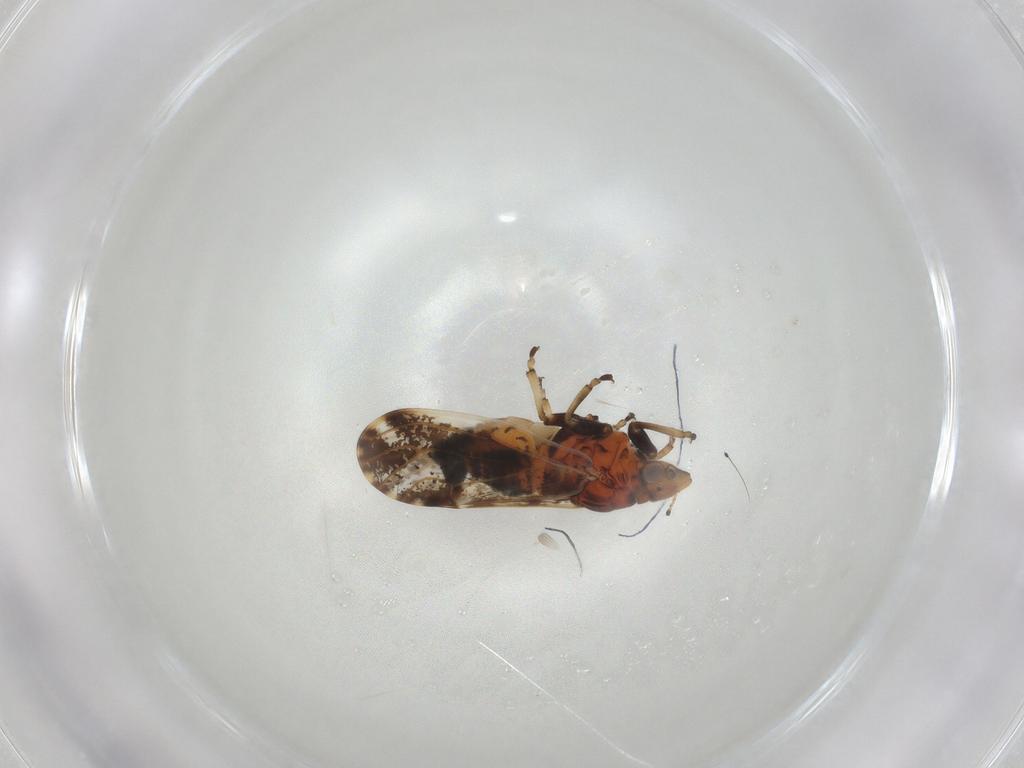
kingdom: Animalia
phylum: Arthropoda
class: Insecta
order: Hemiptera
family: Achilidae
